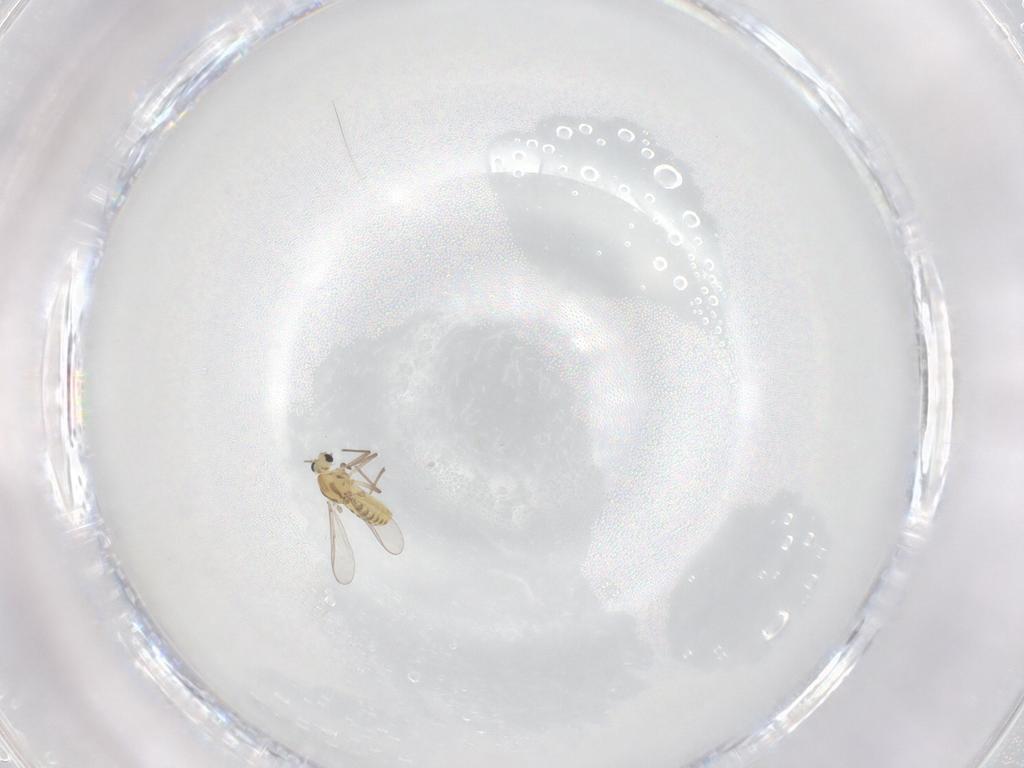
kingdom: Animalia
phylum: Arthropoda
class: Insecta
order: Diptera
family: Chironomidae
